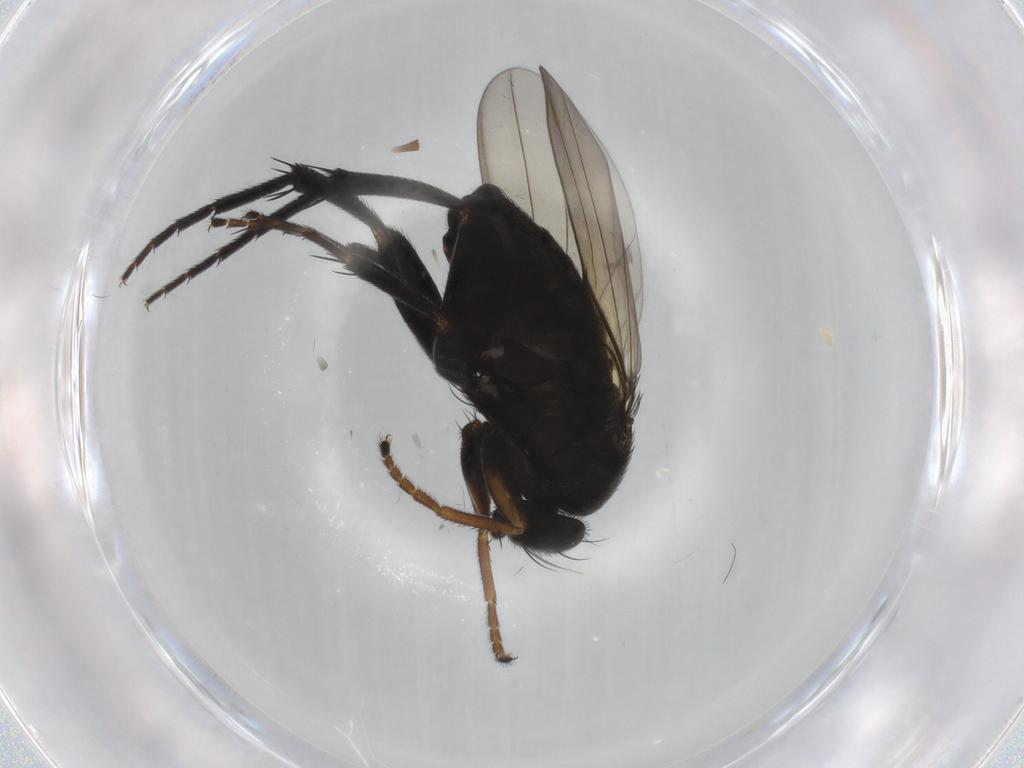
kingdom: Animalia
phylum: Arthropoda
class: Insecta
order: Diptera
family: Phoridae
